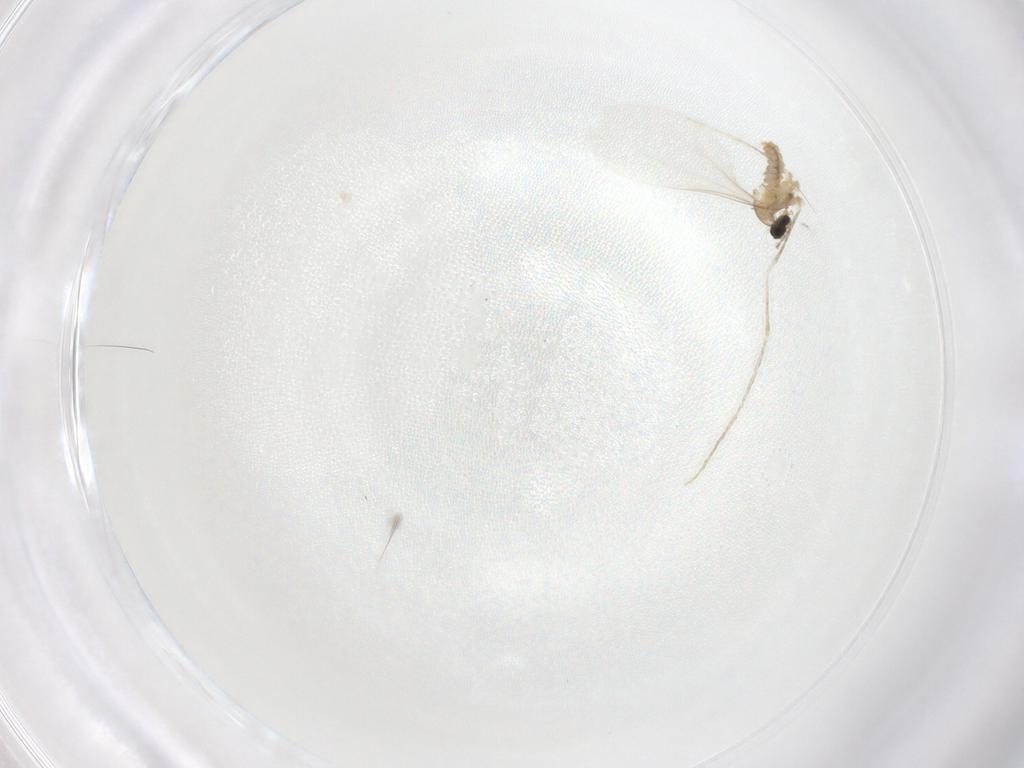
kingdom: Animalia
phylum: Arthropoda
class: Insecta
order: Diptera
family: Cecidomyiidae
